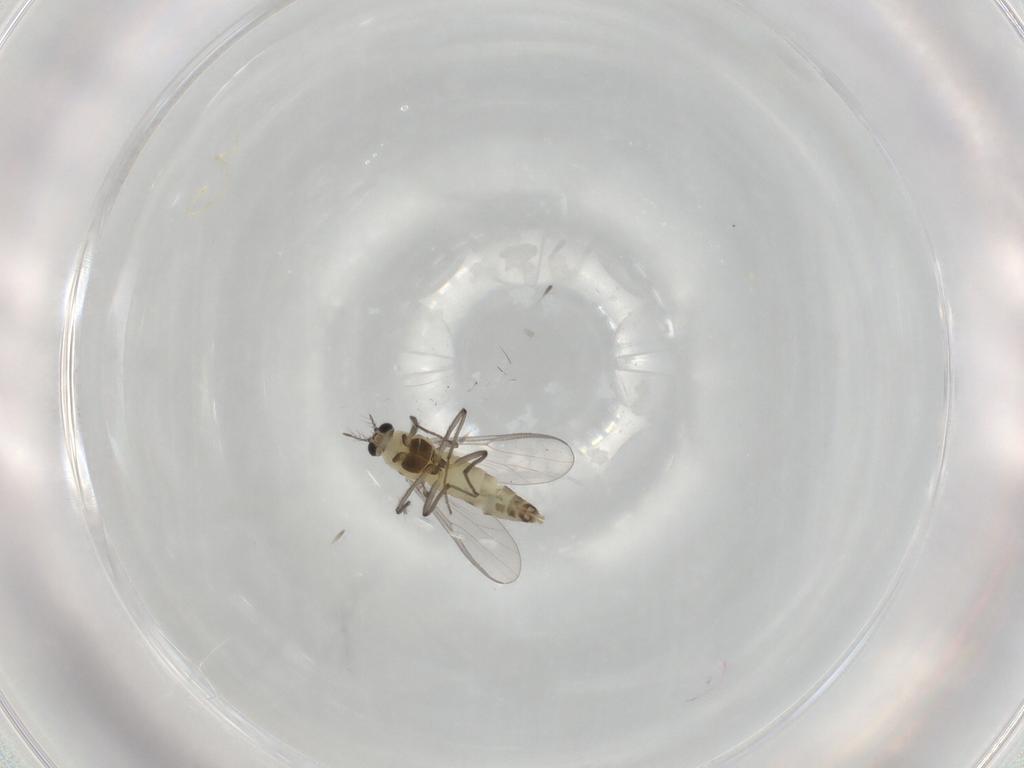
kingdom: Animalia
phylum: Arthropoda
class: Insecta
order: Diptera
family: Chironomidae
